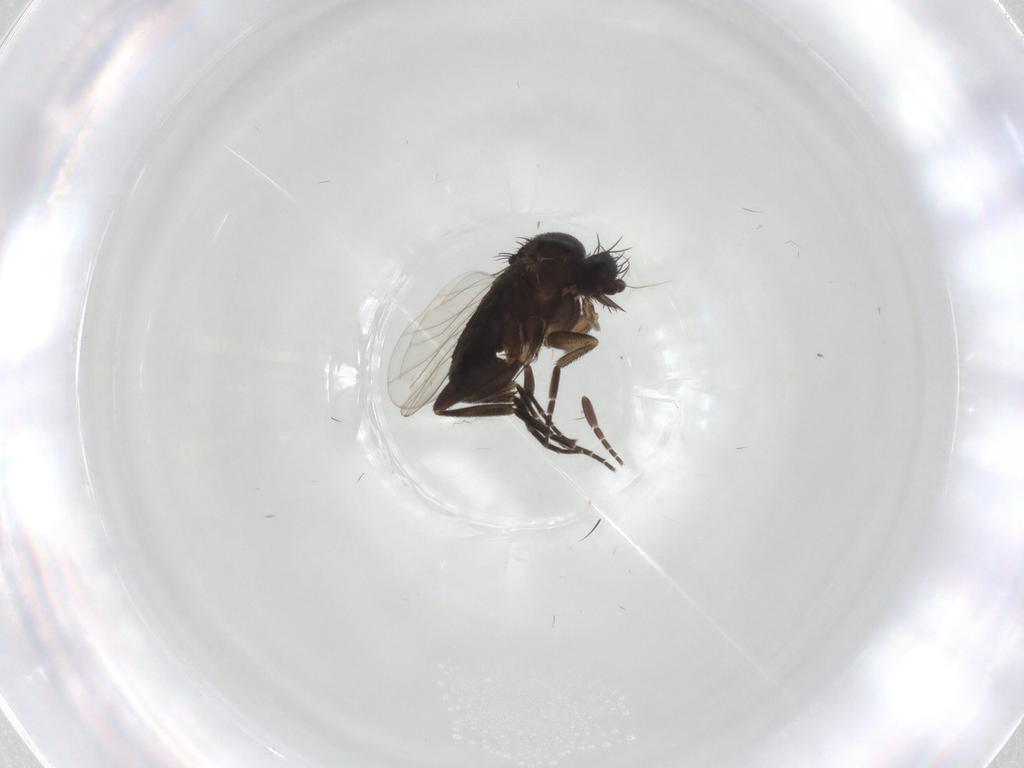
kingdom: Animalia
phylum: Arthropoda
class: Insecta
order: Diptera
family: Phoridae
